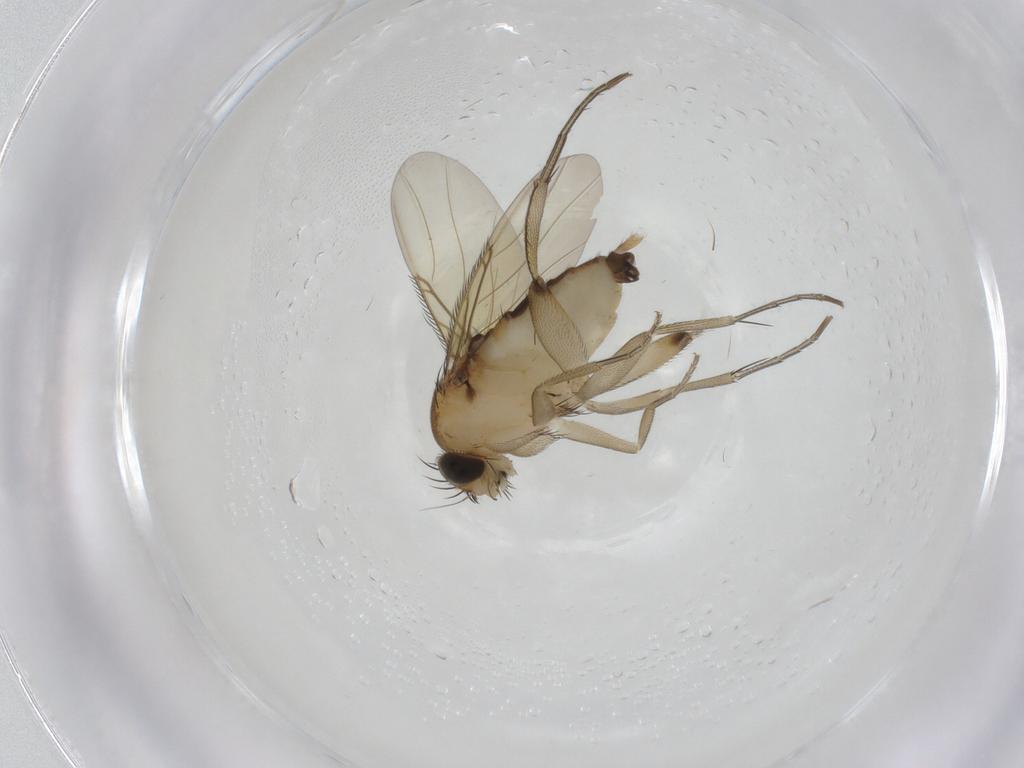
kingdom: Animalia
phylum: Arthropoda
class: Insecta
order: Diptera
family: Phoridae
